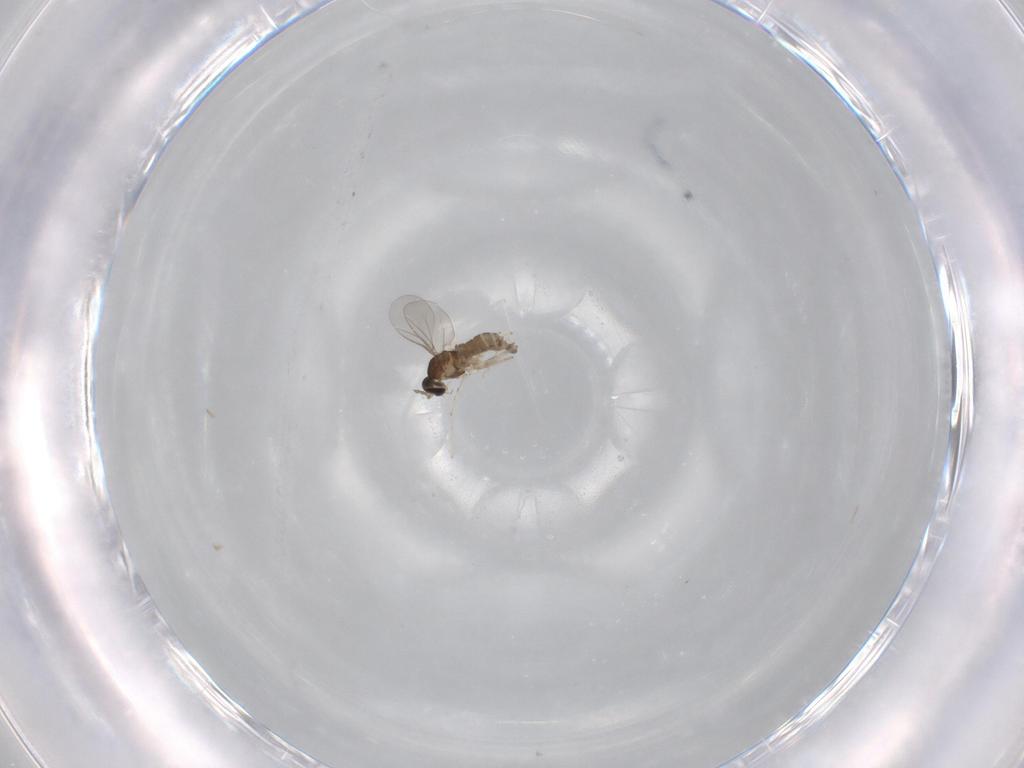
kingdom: Animalia
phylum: Arthropoda
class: Insecta
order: Diptera
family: Cecidomyiidae
